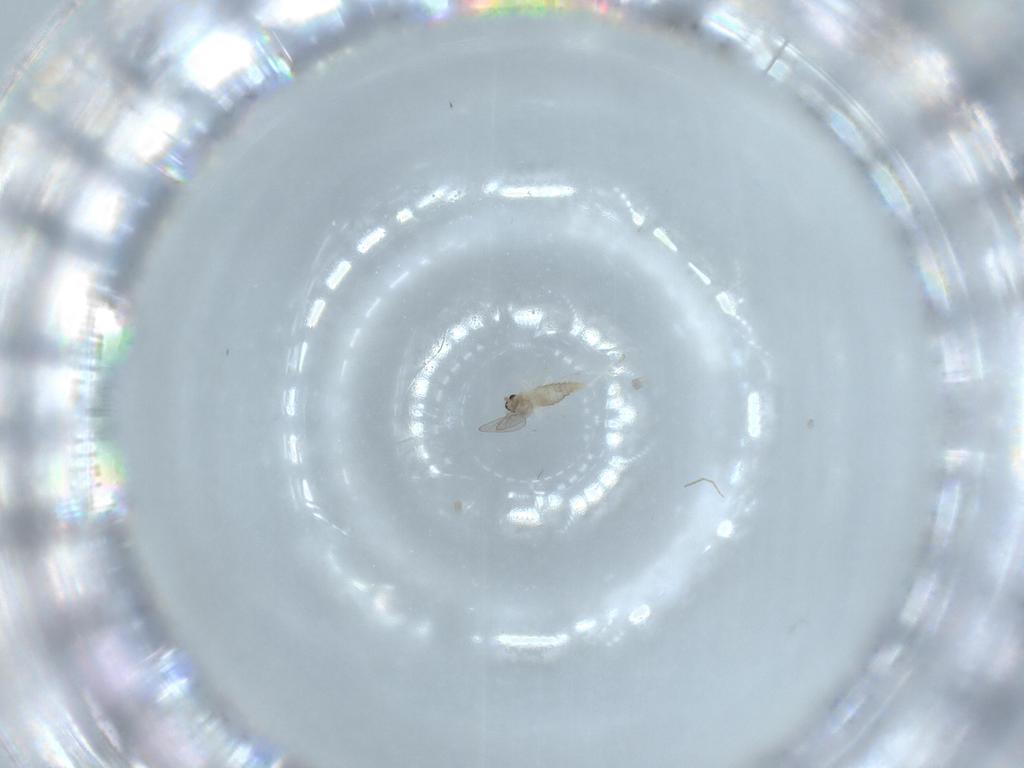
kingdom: Animalia
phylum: Arthropoda
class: Insecta
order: Diptera
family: Cecidomyiidae
